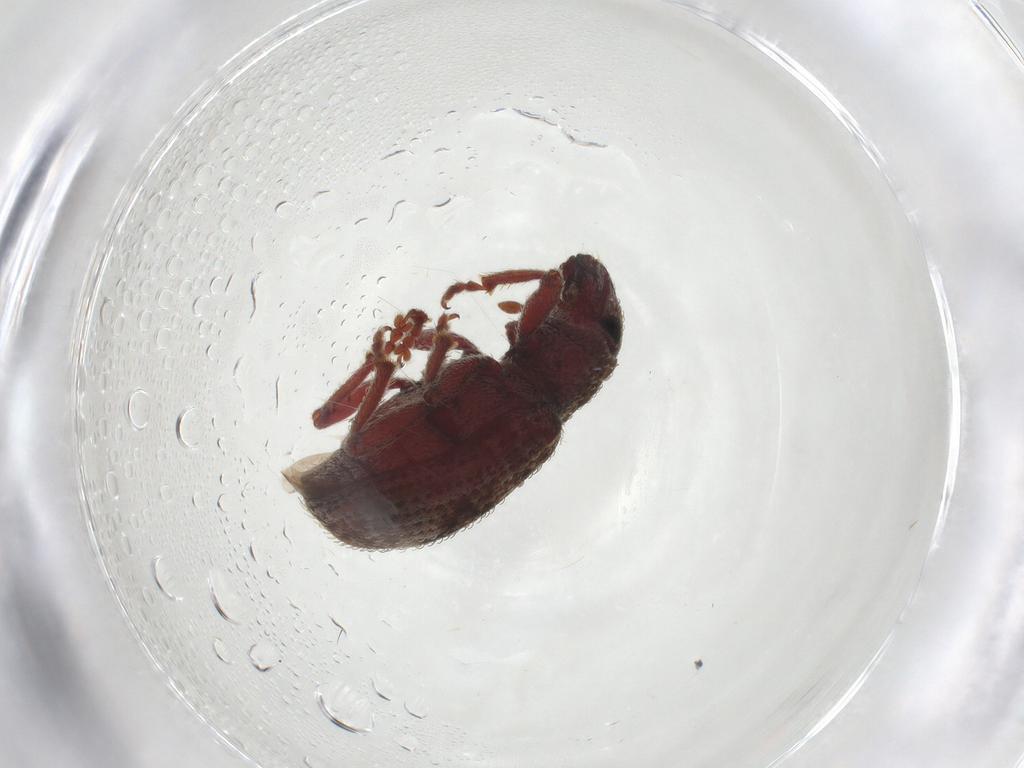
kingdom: Animalia
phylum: Arthropoda
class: Insecta
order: Coleoptera
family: Curculionidae
